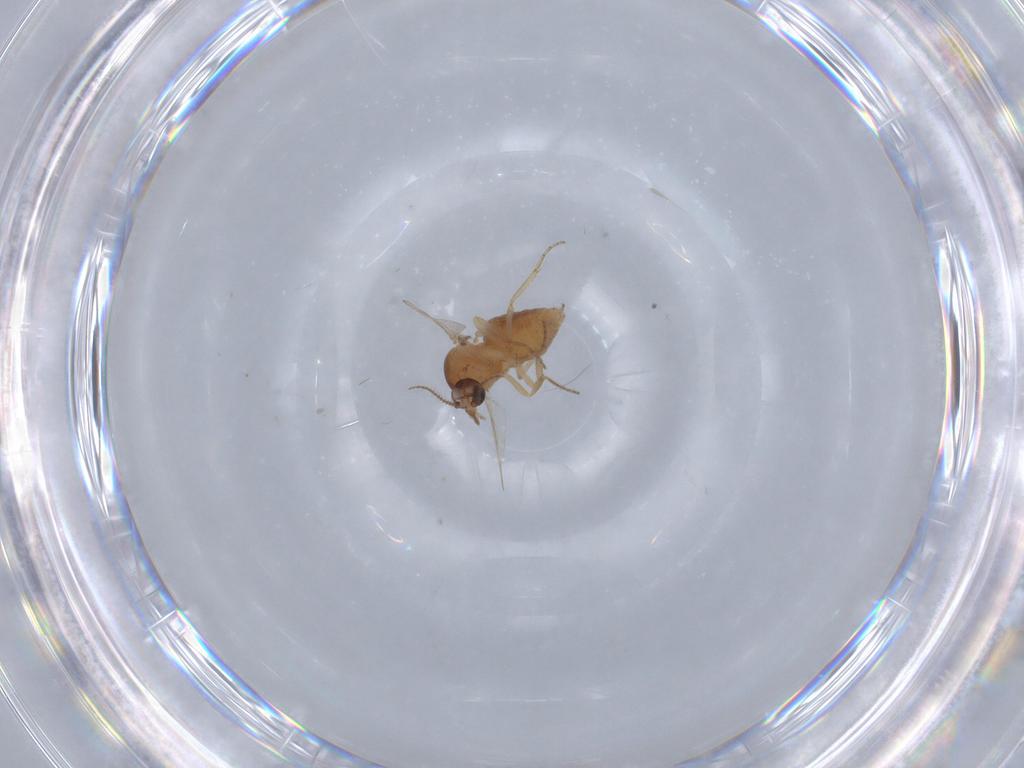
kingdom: Animalia
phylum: Arthropoda
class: Insecta
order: Diptera
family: Ceratopogonidae
